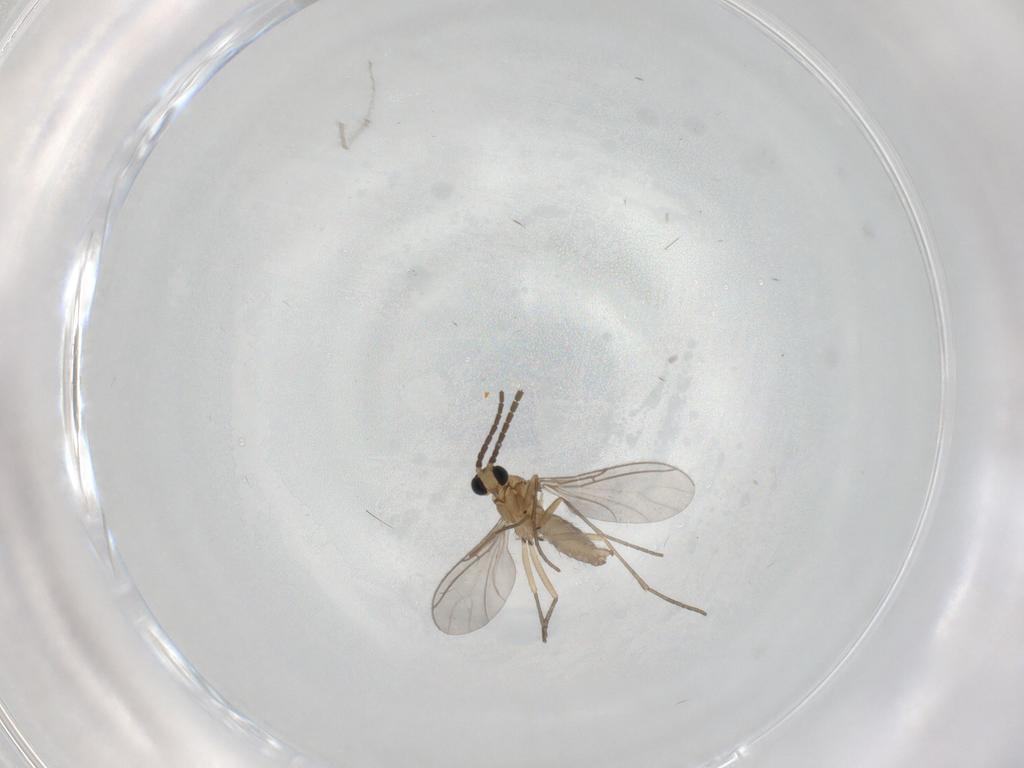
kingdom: Animalia
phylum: Arthropoda
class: Insecta
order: Diptera
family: Sciaridae
